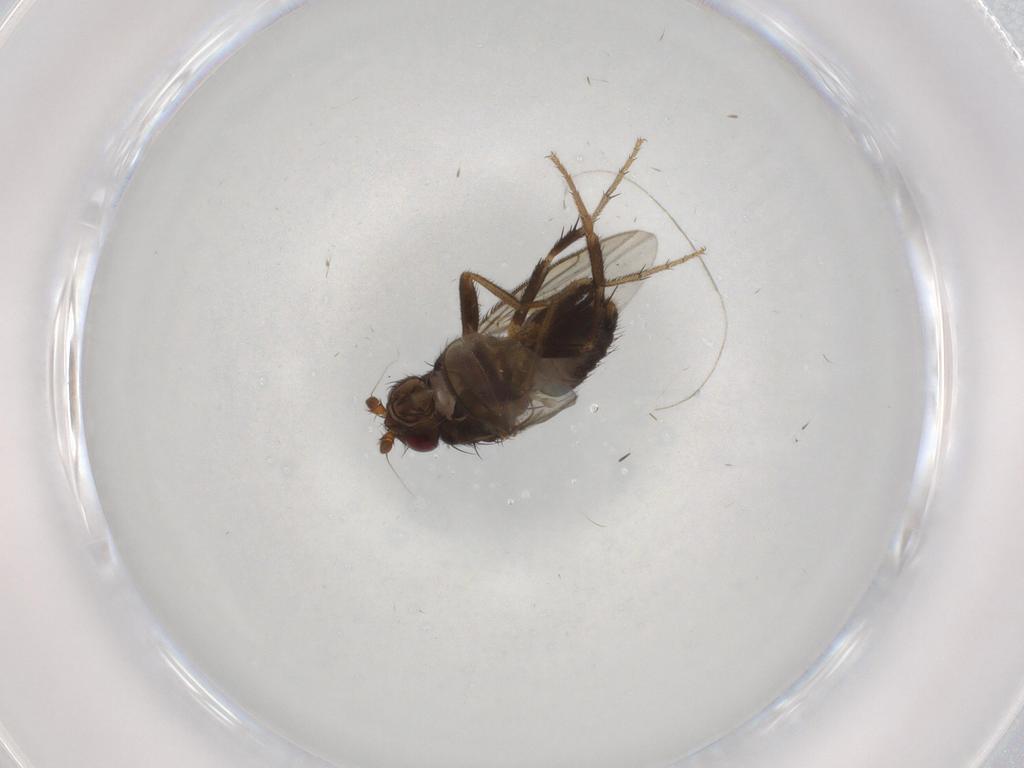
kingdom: Animalia
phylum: Arthropoda
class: Insecta
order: Diptera
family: Sphaeroceridae
